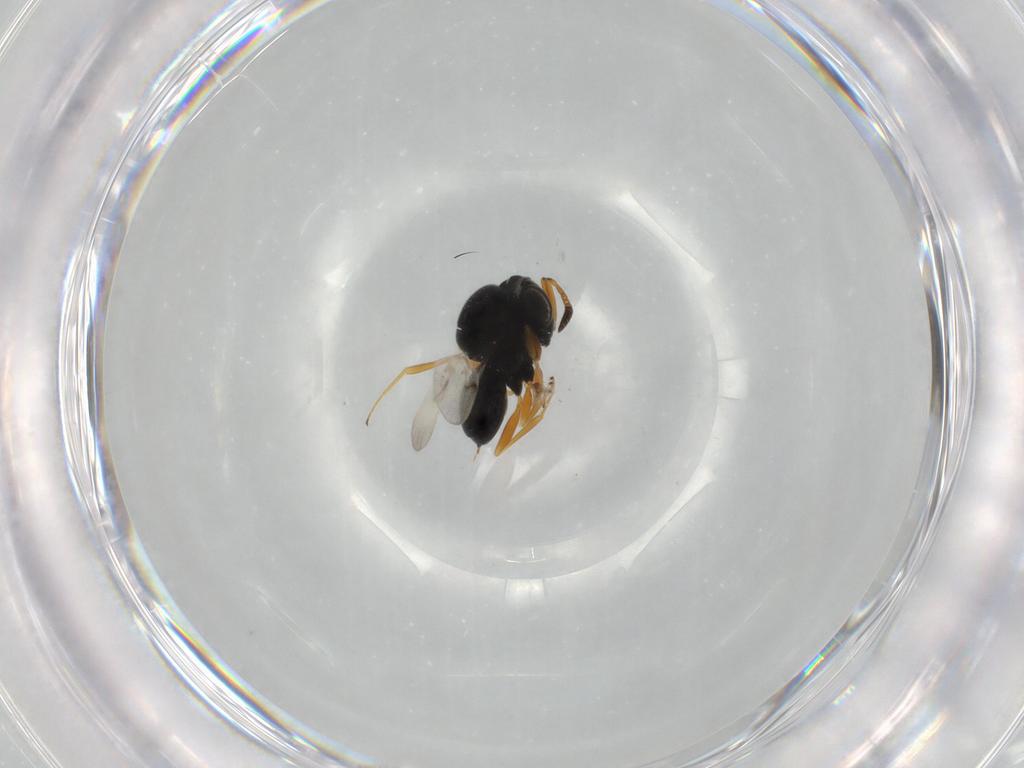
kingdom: Animalia
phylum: Arthropoda
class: Insecta
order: Hymenoptera
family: Scelionidae
